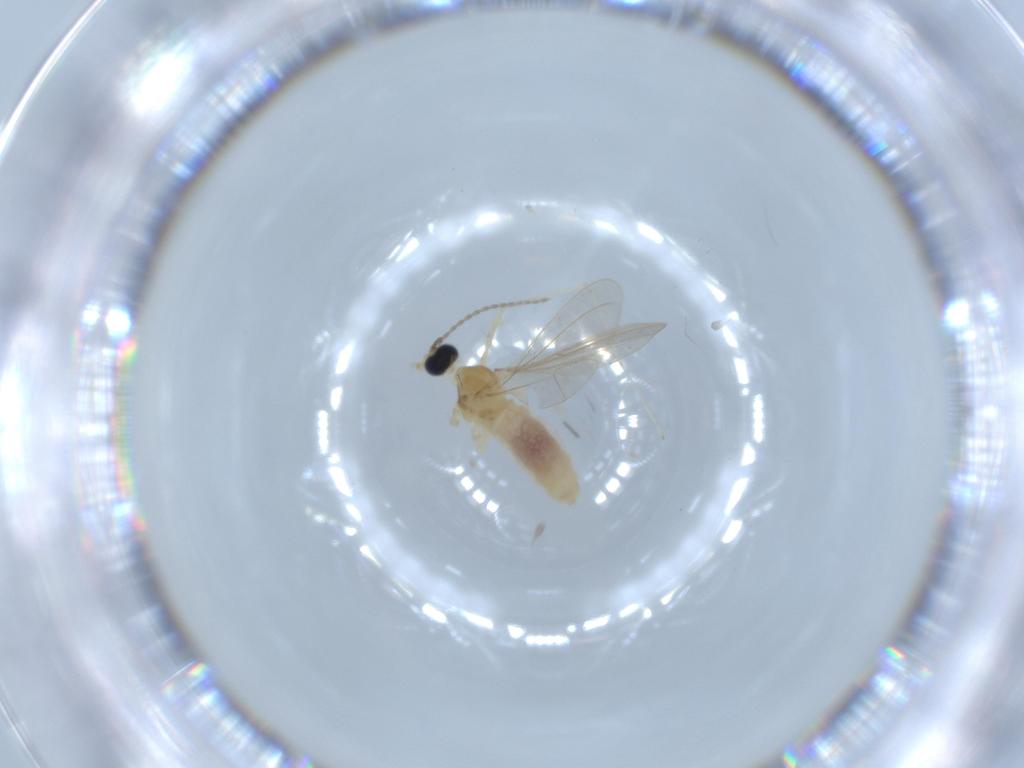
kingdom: Animalia
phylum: Arthropoda
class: Insecta
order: Diptera
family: Cecidomyiidae
